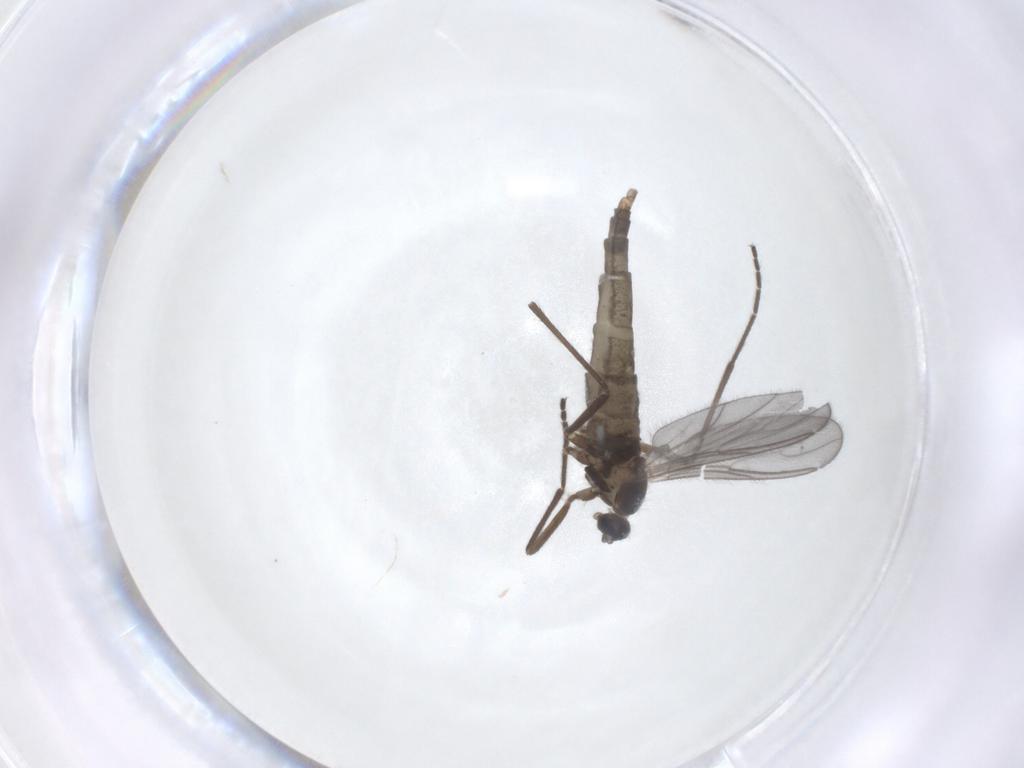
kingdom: Animalia
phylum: Arthropoda
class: Insecta
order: Diptera
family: Cecidomyiidae
